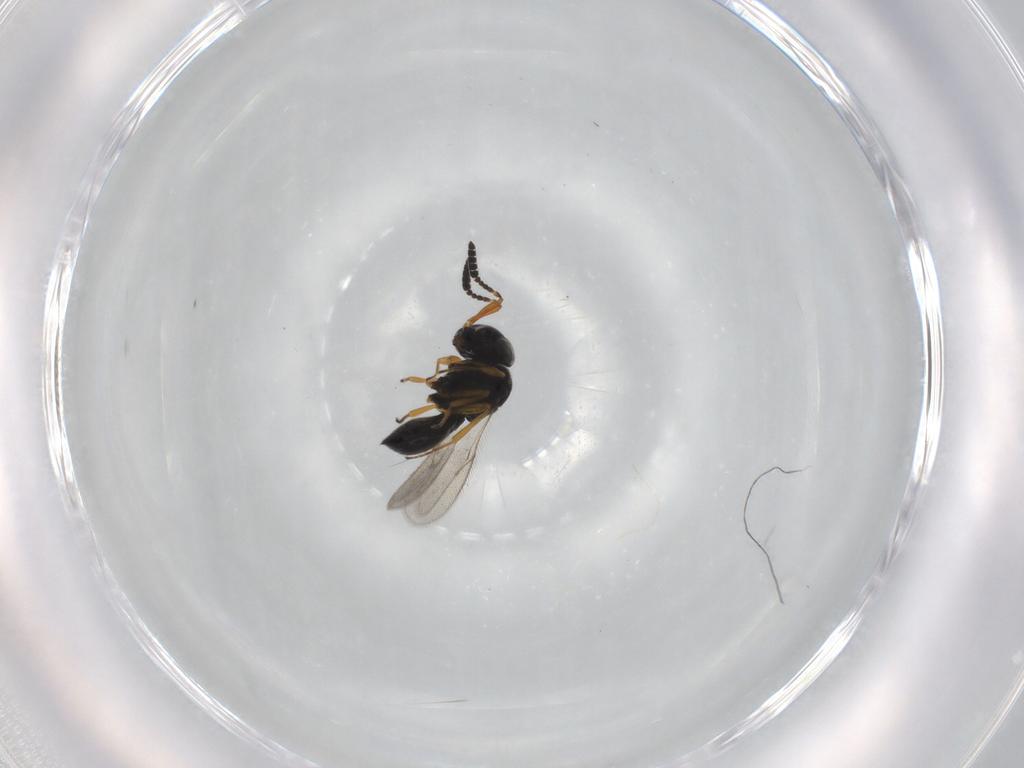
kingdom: Animalia
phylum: Arthropoda
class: Insecta
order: Hymenoptera
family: Scelionidae
